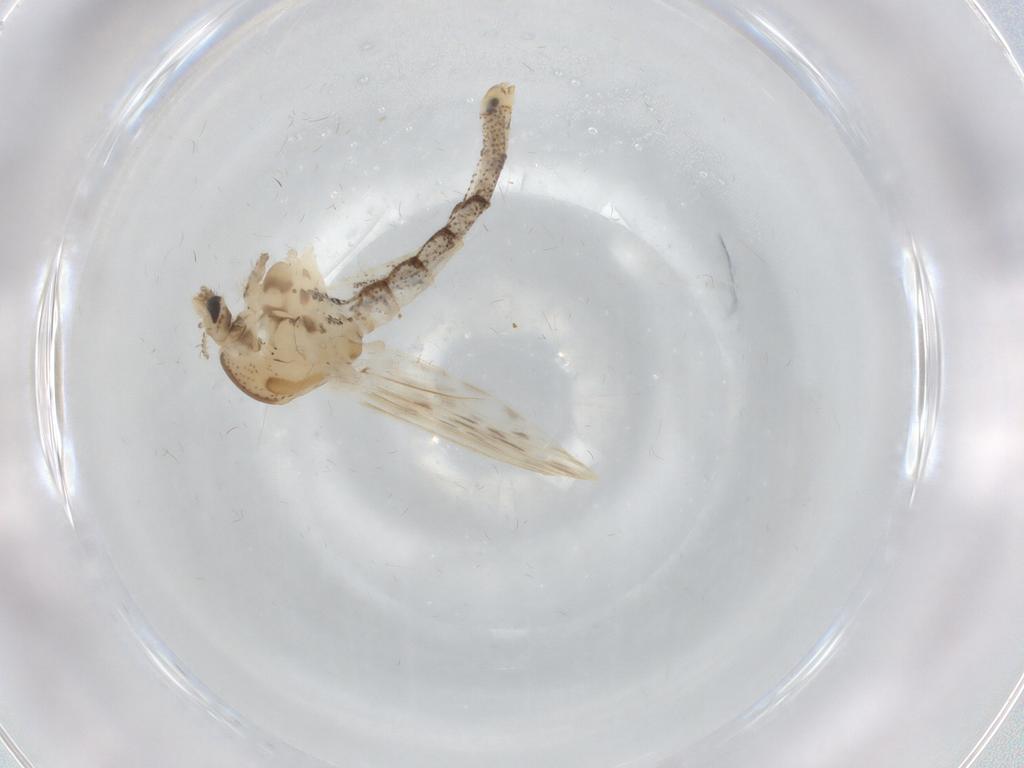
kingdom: Animalia
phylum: Arthropoda
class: Insecta
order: Diptera
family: Chaoboridae
